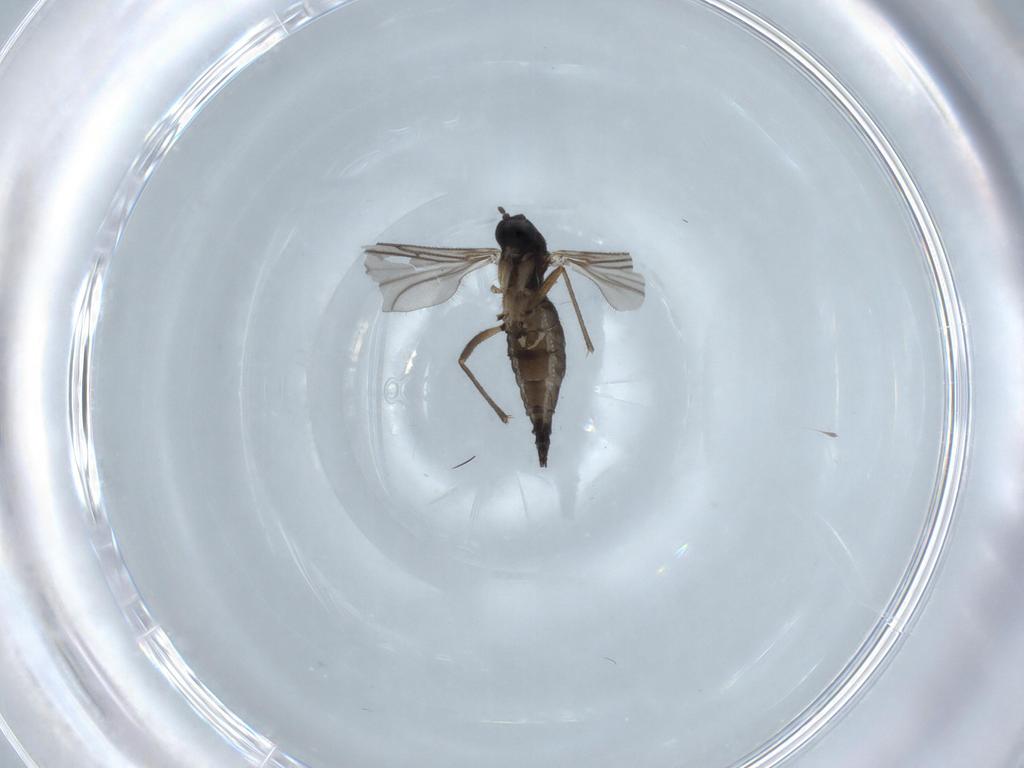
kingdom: Animalia
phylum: Arthropoda
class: Insecta
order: Diptera
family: Sciaridae
